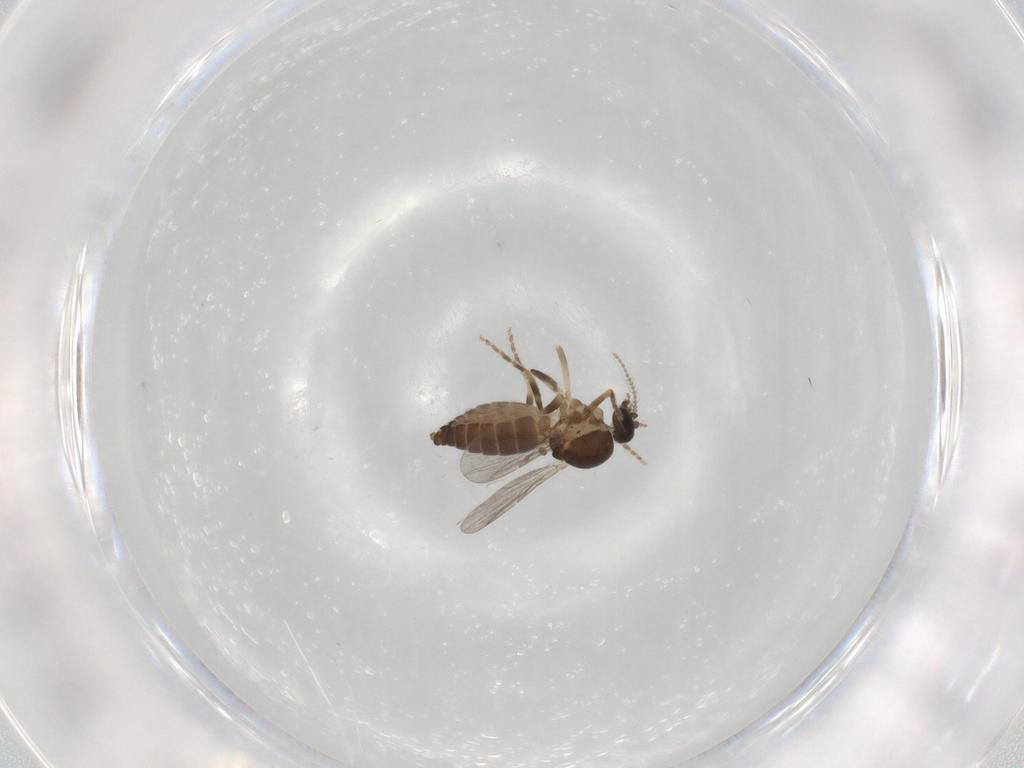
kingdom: Animalia
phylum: Arthropoda
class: Insecta
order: Diptera
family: Ceratopogonidae
